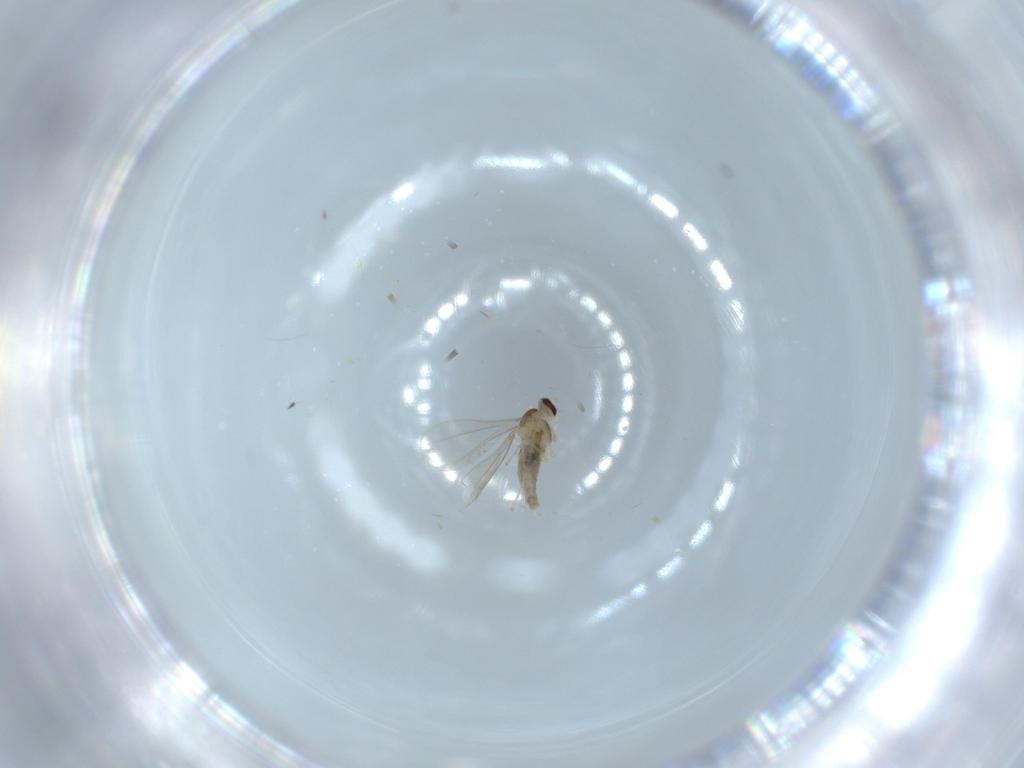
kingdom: Animalia
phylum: Arthropoda
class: Insecta
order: Diptera
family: Cecidomyiidae
